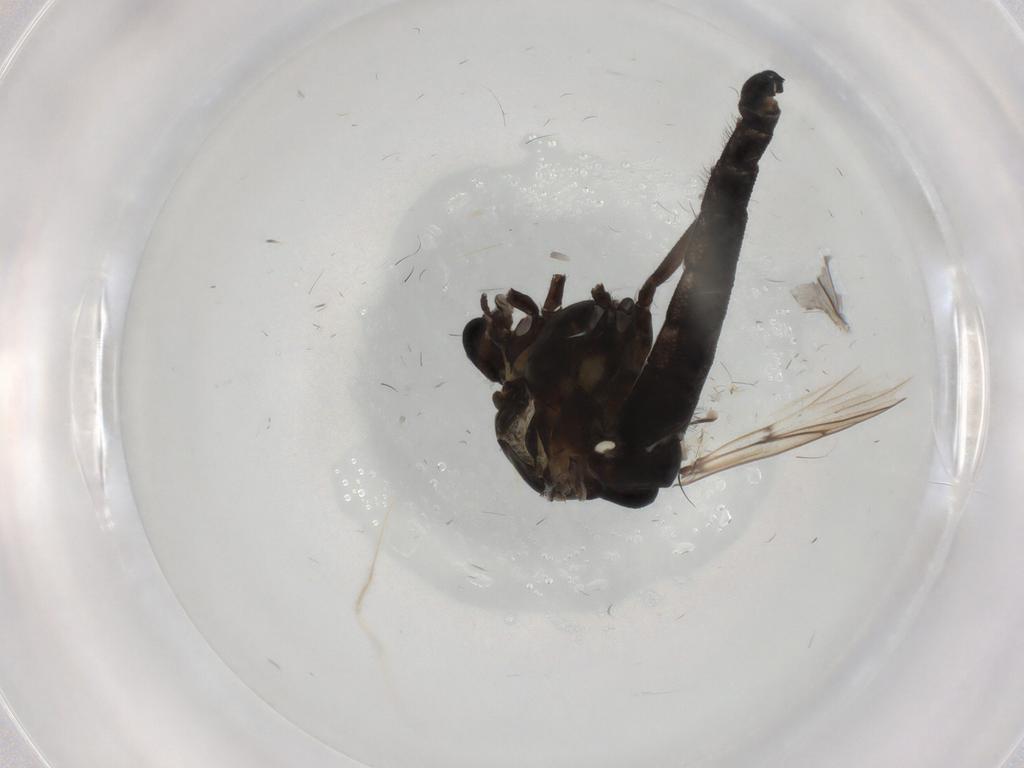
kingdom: Animalia
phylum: Arthropoda
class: Insecta
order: Diptera
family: Chironomidae
